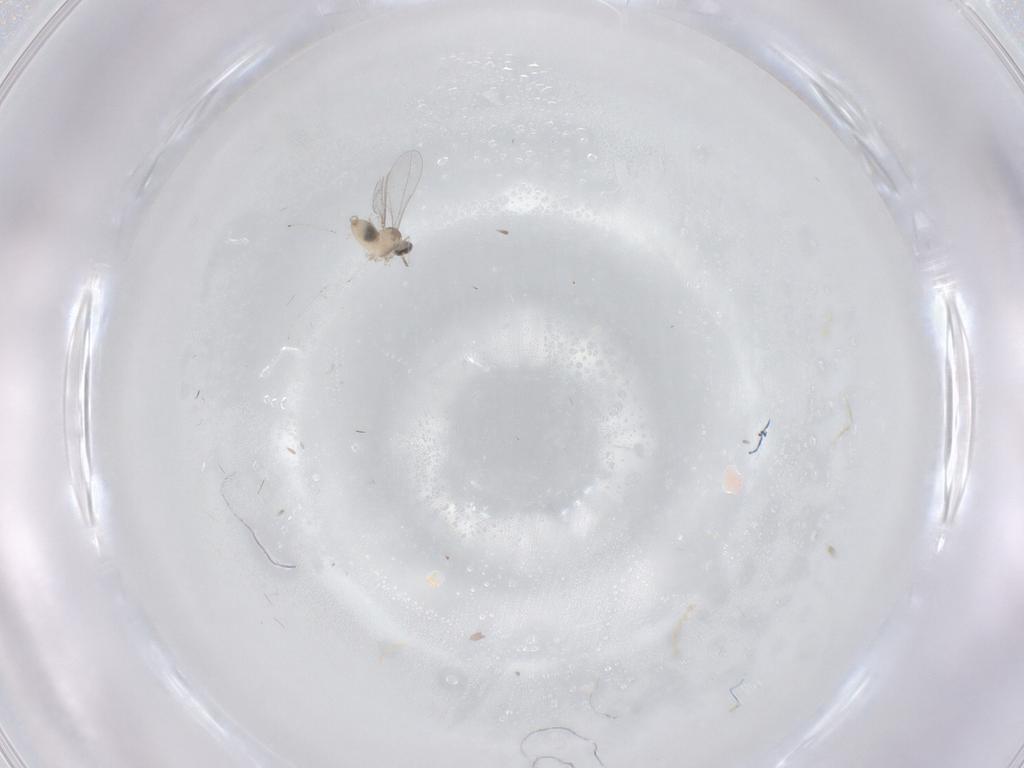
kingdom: Animalia
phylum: Arthropoda
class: Insecta
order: Diptera
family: Cecidomyiidae
